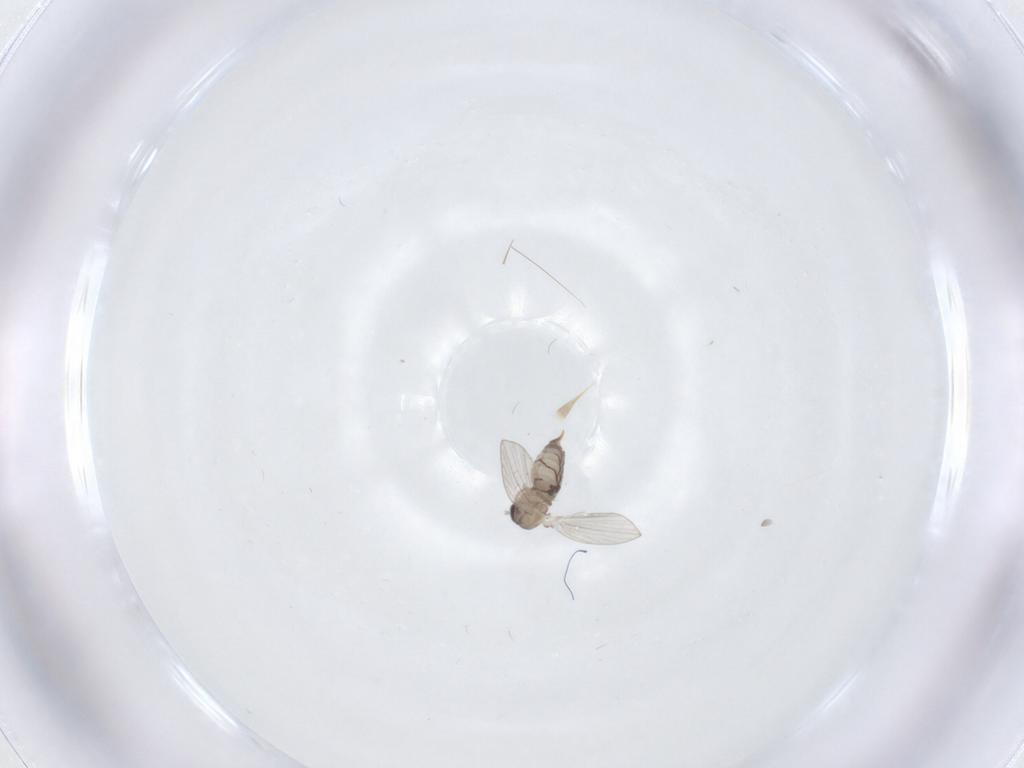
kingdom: Animalia
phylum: Arthropoda
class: Insecta
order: Diptera
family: Psychodidae
